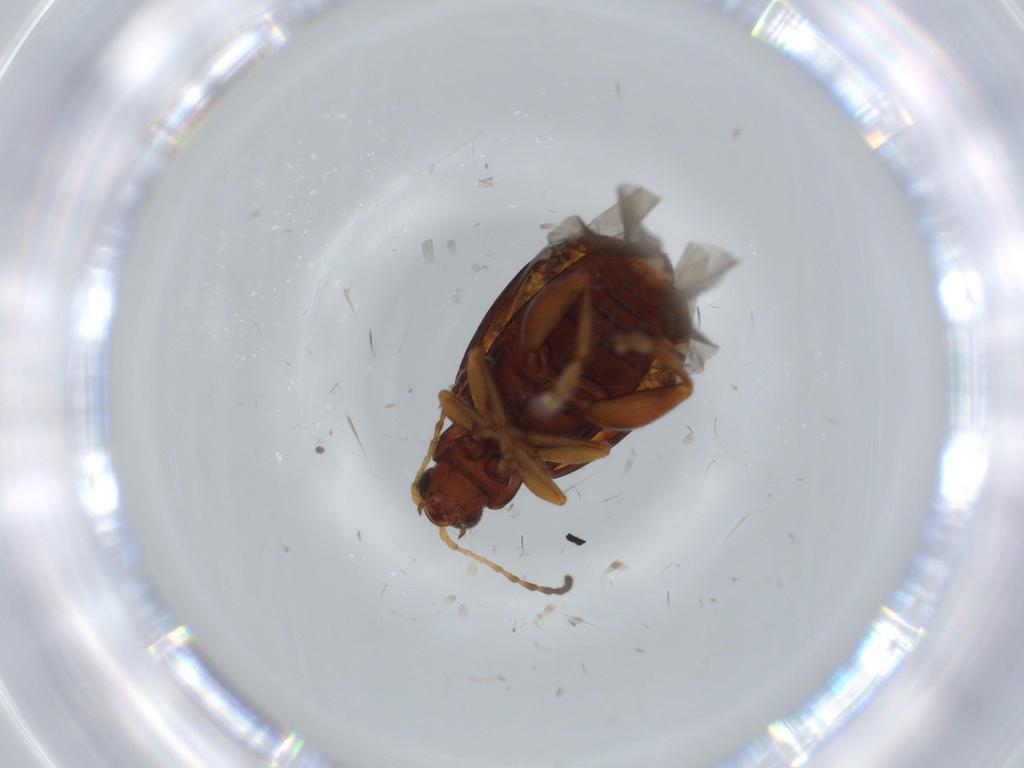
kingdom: Animalia
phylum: Arthropoda
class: Insecta
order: Coleoptera
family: Chrysomelidae
